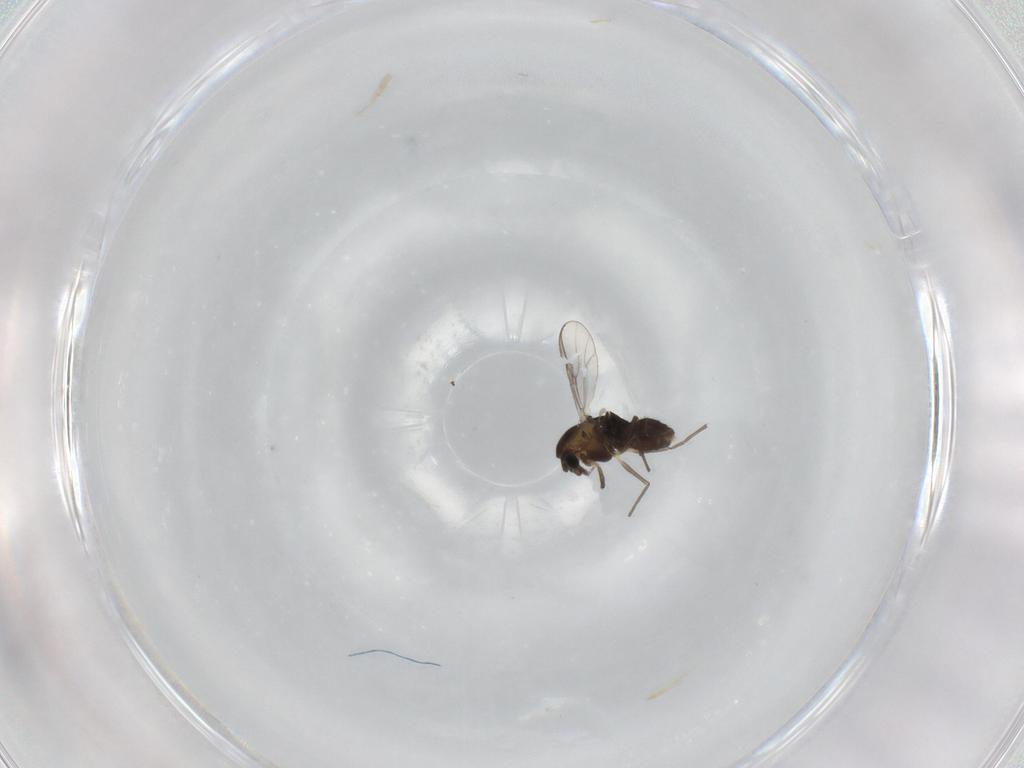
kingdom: Animalia
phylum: Arthropoda
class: Insecta
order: Diptera
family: Chironomidae
